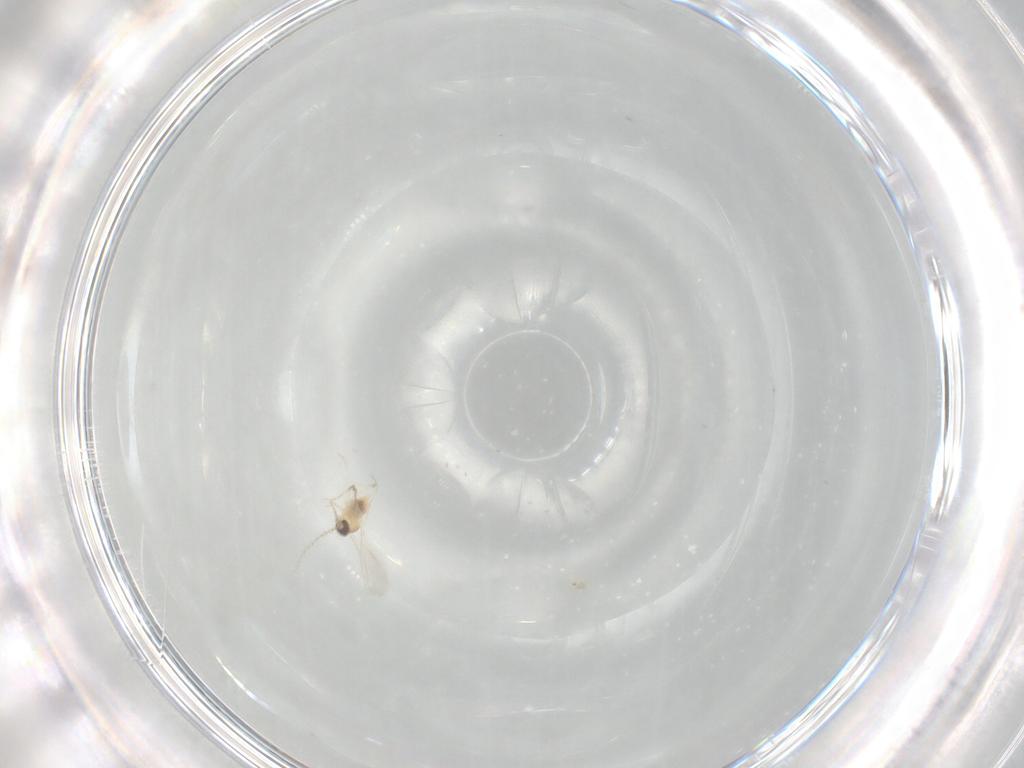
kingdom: Animalia
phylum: Arthropoda
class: Insecta
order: Diptera
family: Cecidomyiidae
